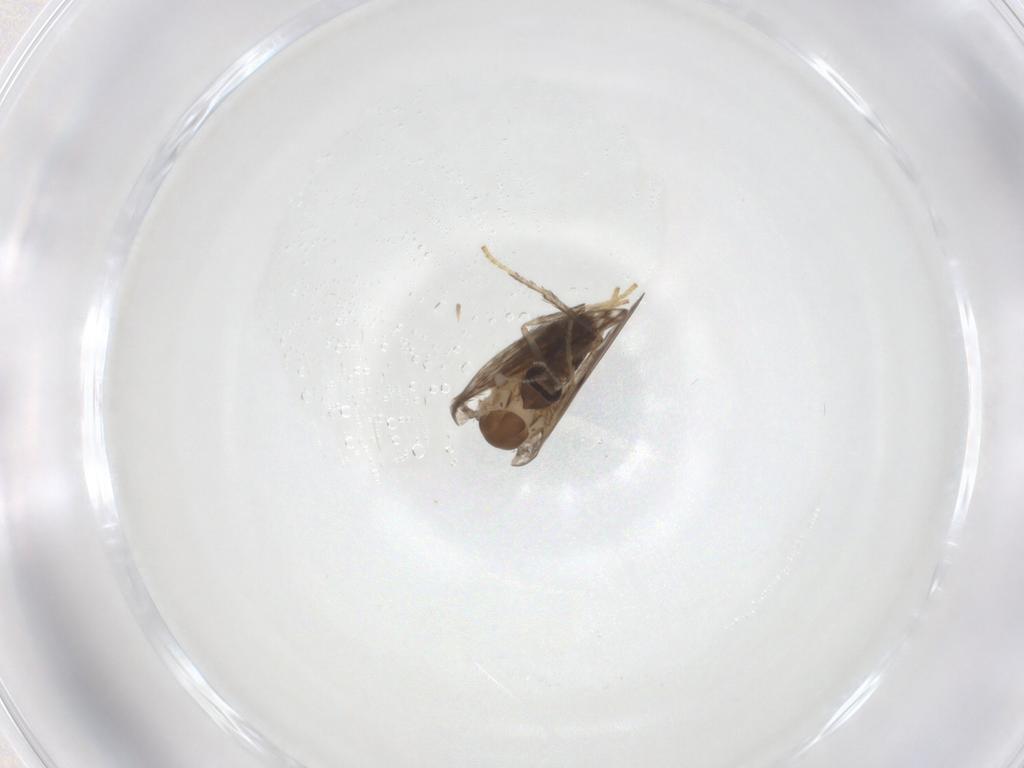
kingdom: Animalia
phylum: Arthropoda
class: Insecta
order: Diptera
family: Psychodidae
